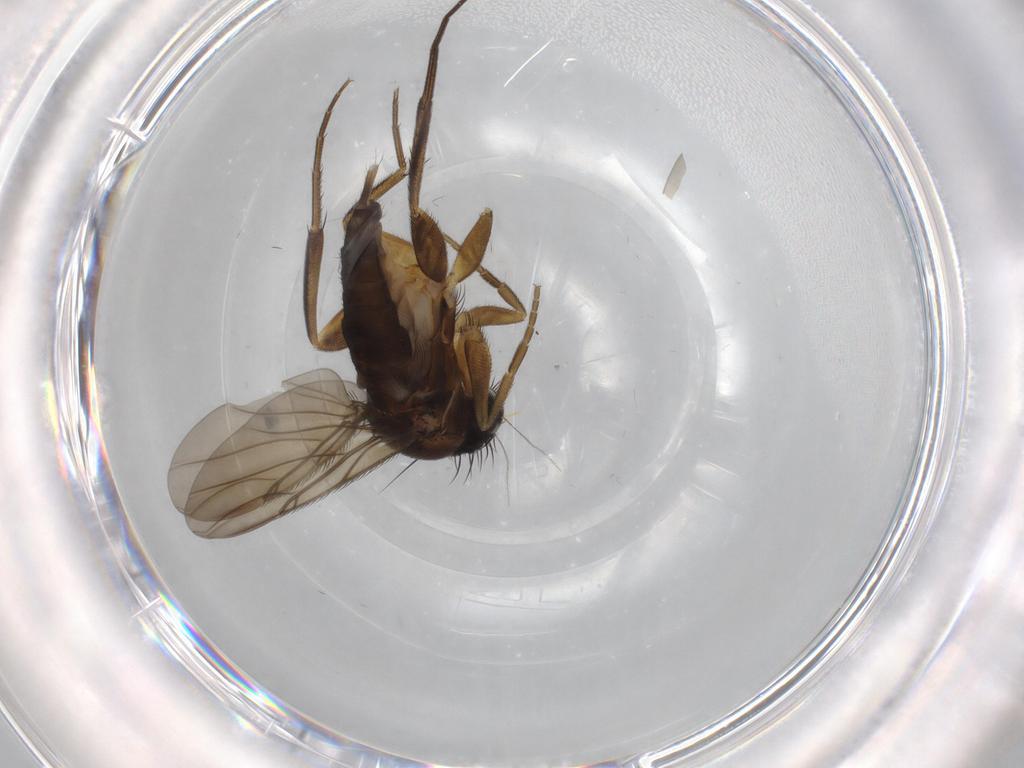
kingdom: Animalia
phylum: Arthropoda
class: Insecta
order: Diptera
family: Phoridae
